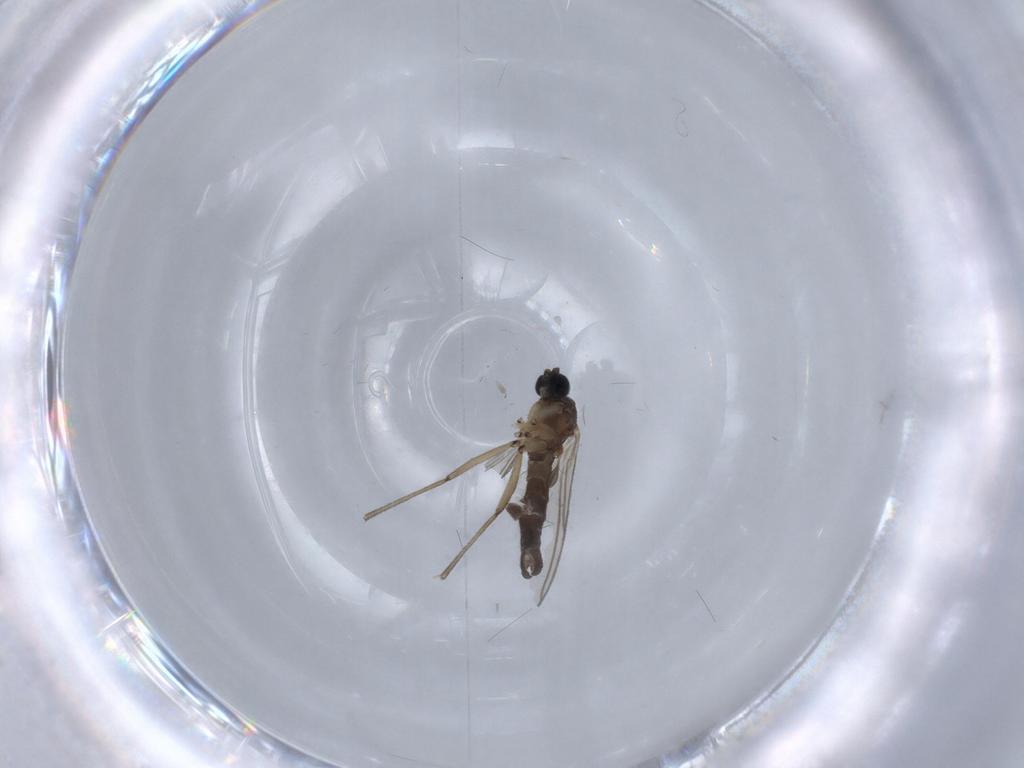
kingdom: Animalia
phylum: Arthropoda
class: Insecta
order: Diptera
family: Sciaridae
